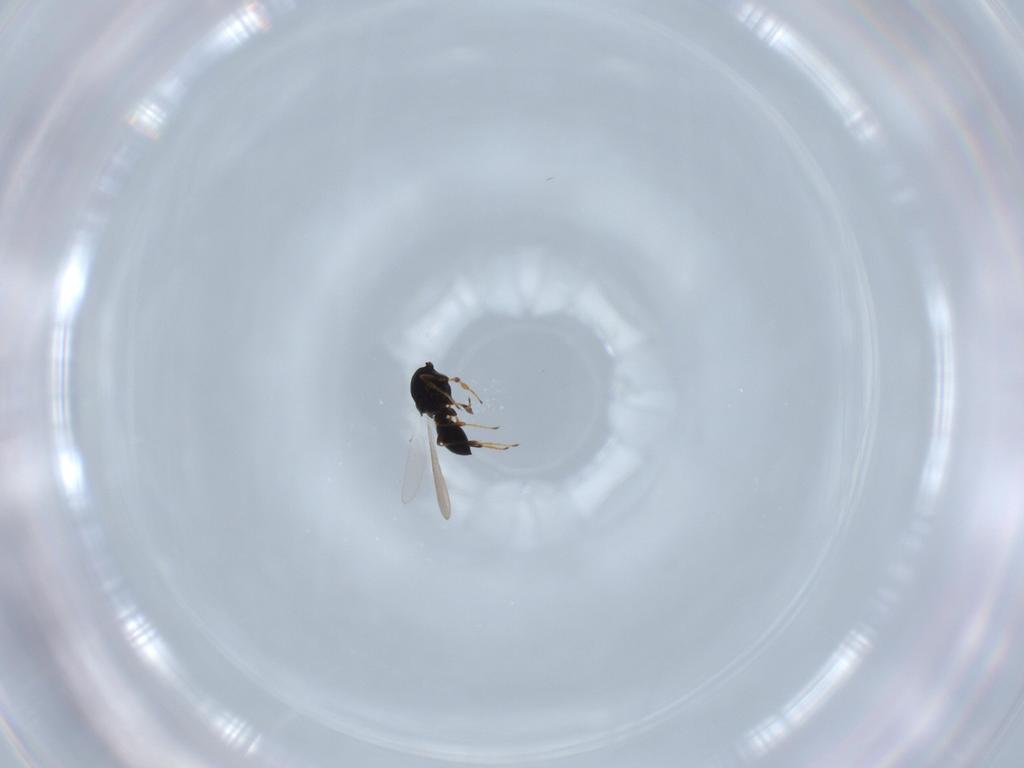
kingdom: Animalia
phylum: Arthropoda
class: Insecta
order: Hymenoptera
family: Platygastridae
